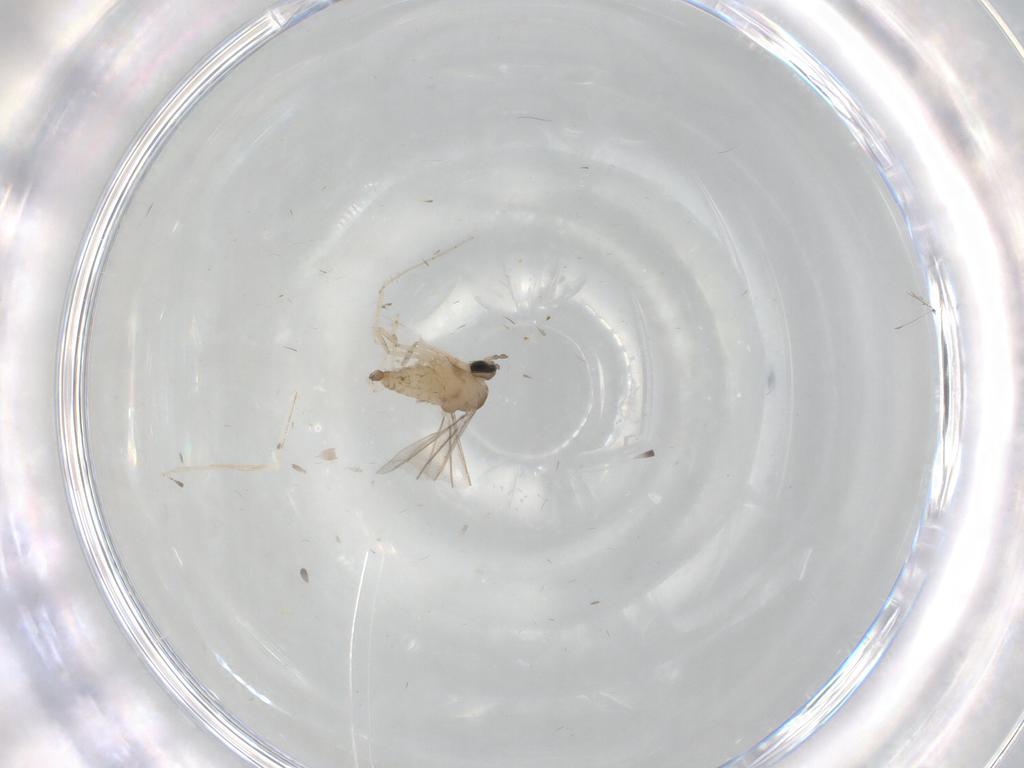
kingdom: Animalia
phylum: Arthropoda
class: Insecta
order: Diptera
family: Cecidomyiidae
